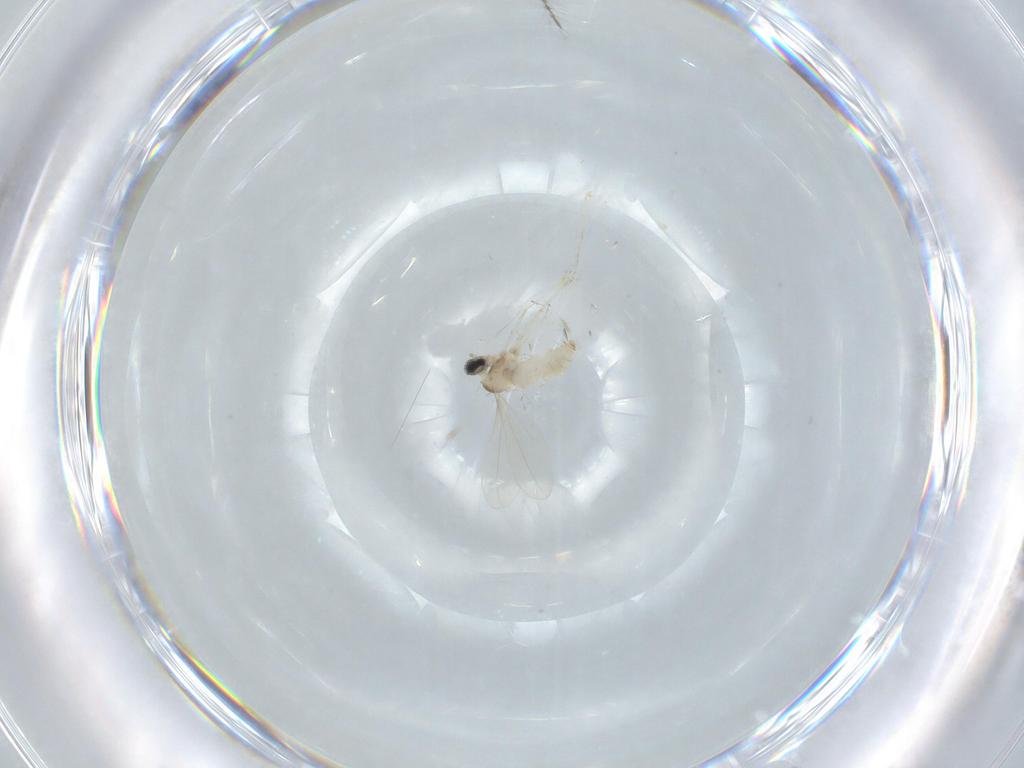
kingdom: Animalia
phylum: Arthropoda
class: Insecta
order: Diptera
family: Cecidomyiidae
